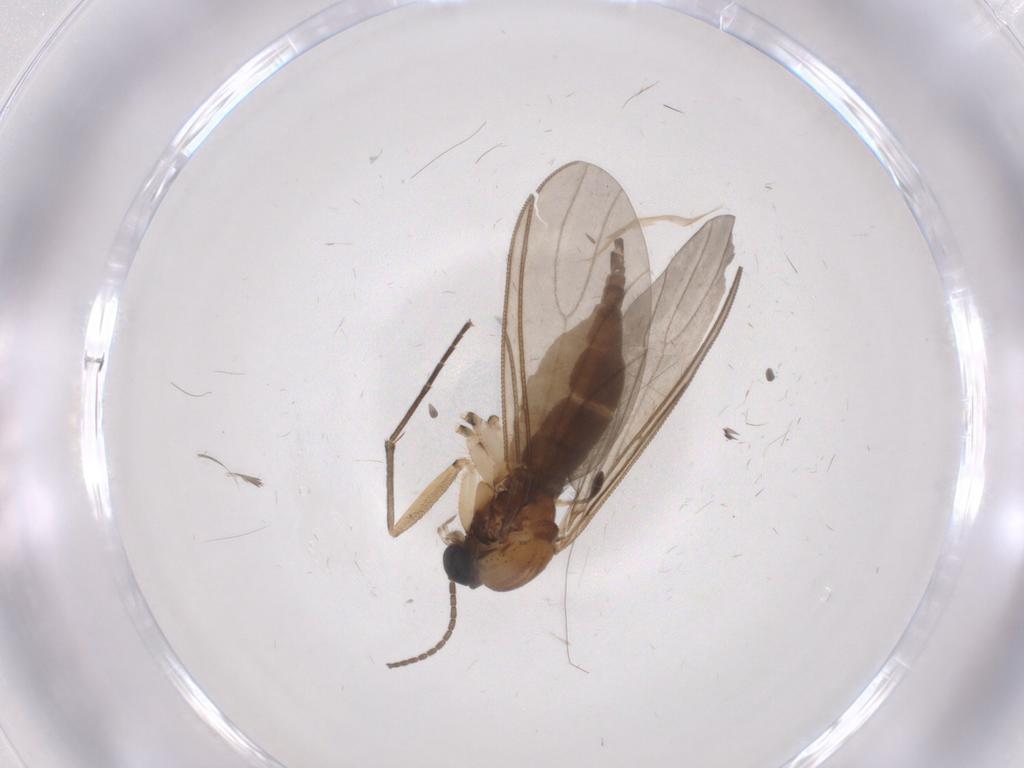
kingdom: Animalia
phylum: Arthropoda
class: Insecta
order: Diptera
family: Sciaridae
